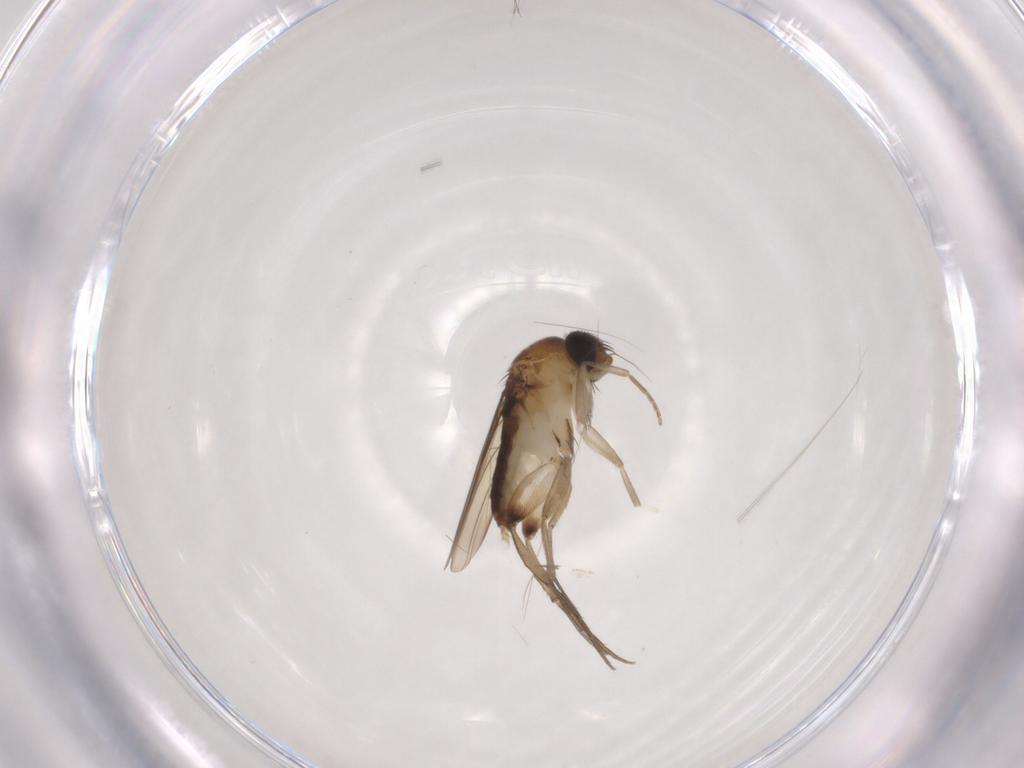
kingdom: Animalia
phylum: Arthropoda
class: Insecta
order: Diptera
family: Phoridae
